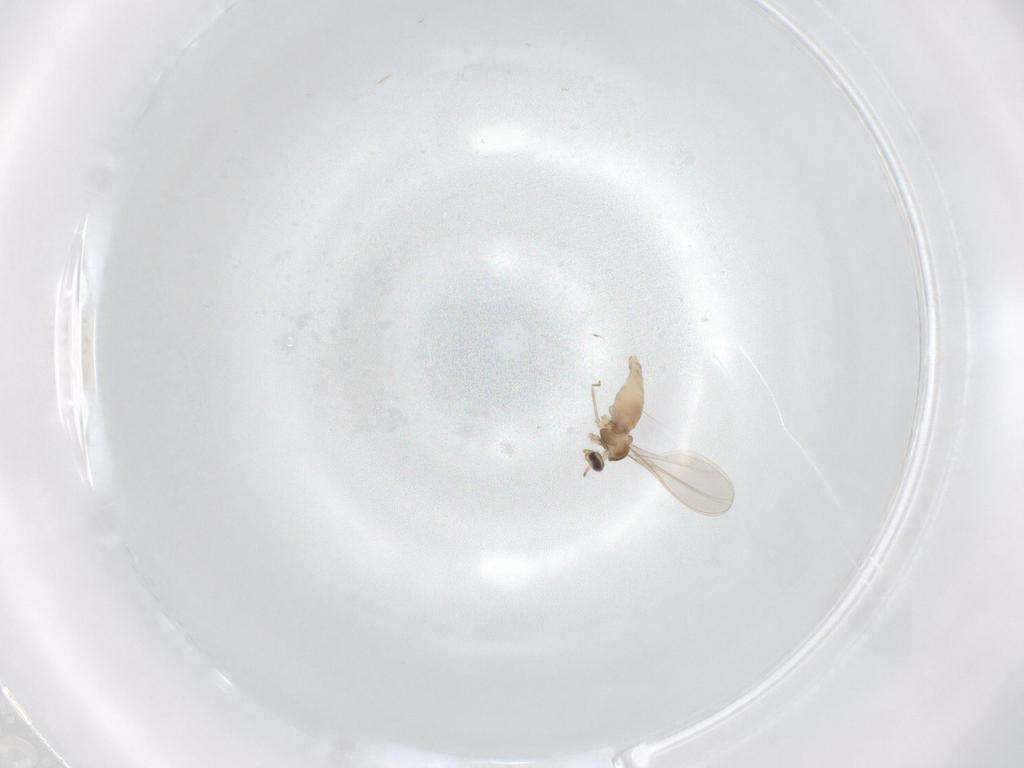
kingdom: Animalia
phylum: Arthropoda
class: Insecta
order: Diptera
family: Cecidomyiidae
